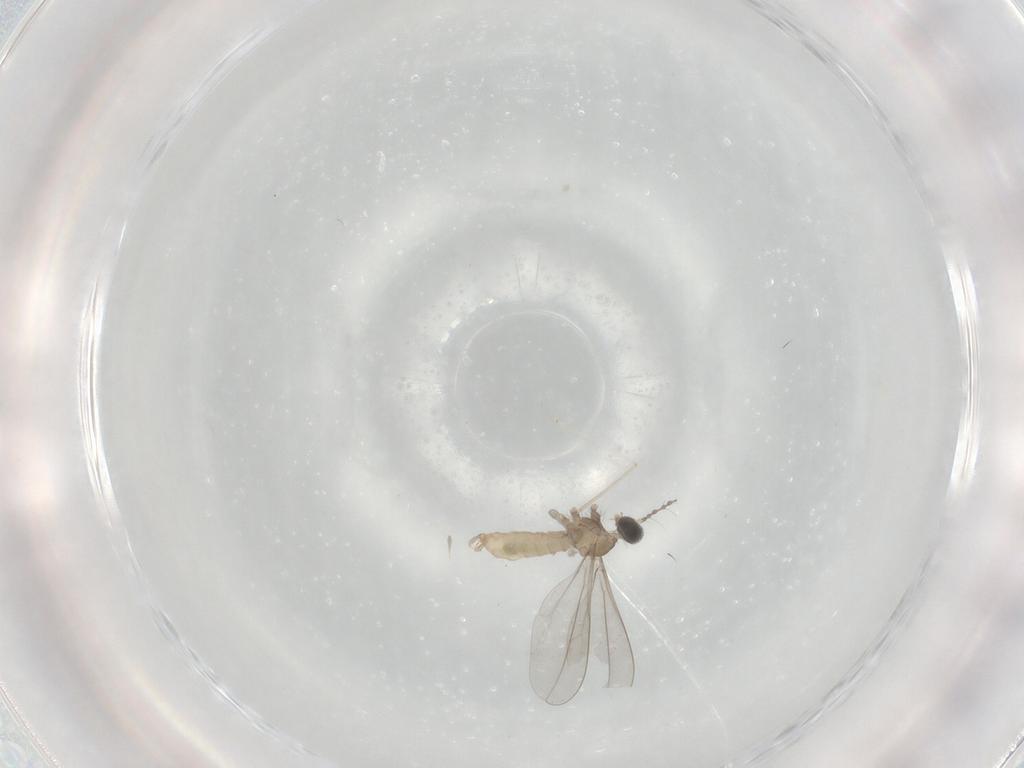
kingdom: Animalia
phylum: Arthropoda
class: Insecta
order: Diptera
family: Cecidomyiidae
